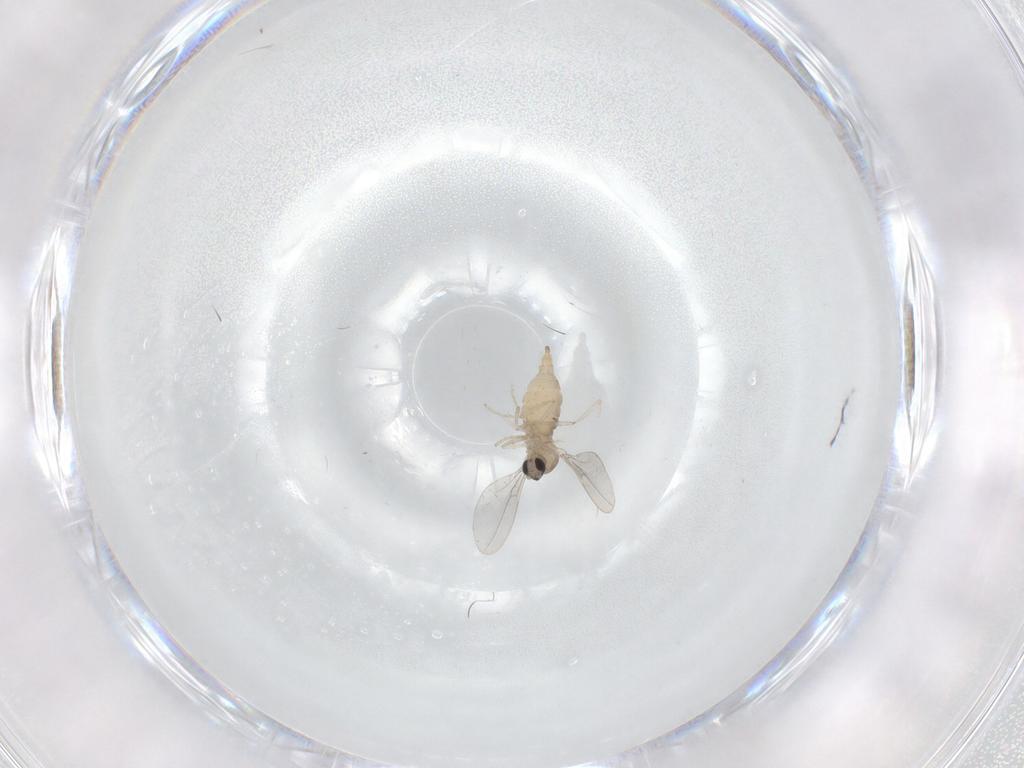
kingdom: Animalia
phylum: Arthropoda
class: Insecta
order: Diptera
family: Cecidomyiidae
